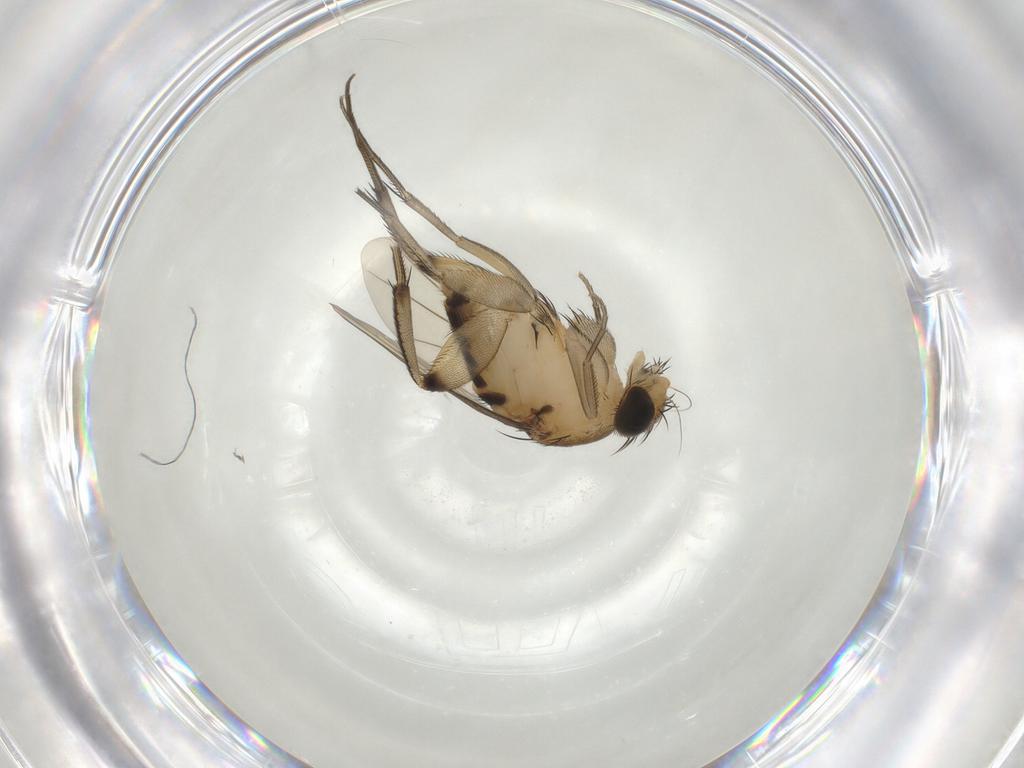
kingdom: Animalia
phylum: Arthropoda
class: Insecta
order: Diptera
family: Phoridae
